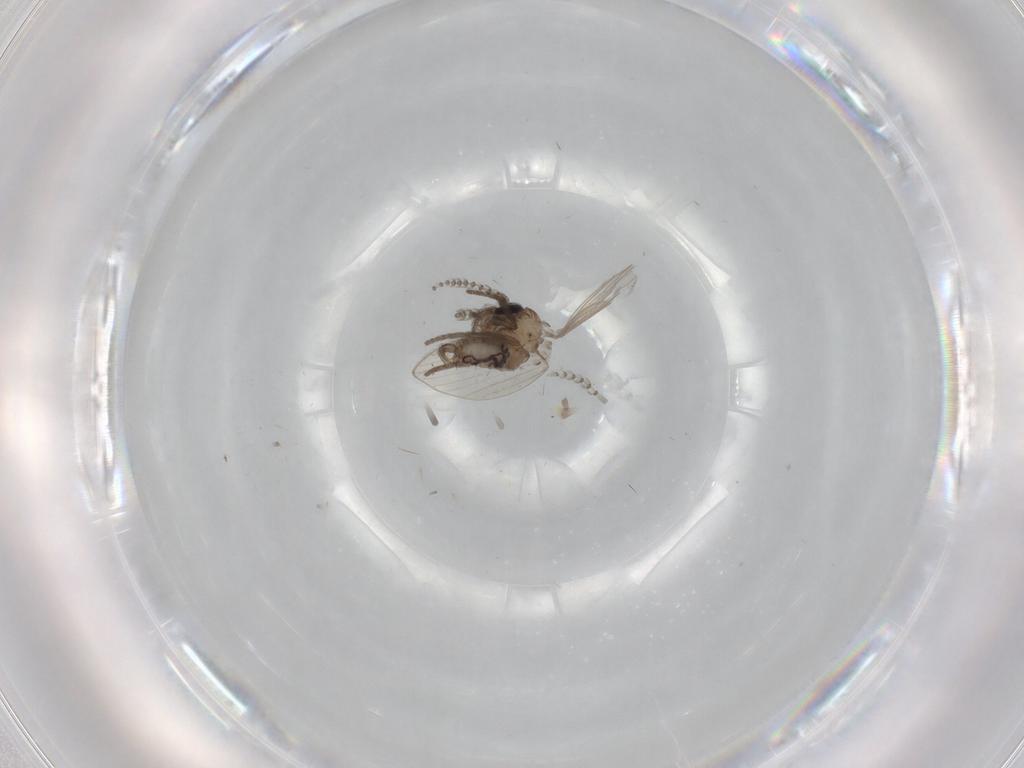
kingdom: Animalia
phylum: Arthropoda
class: Insecta
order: Diptera
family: Psychodidae
